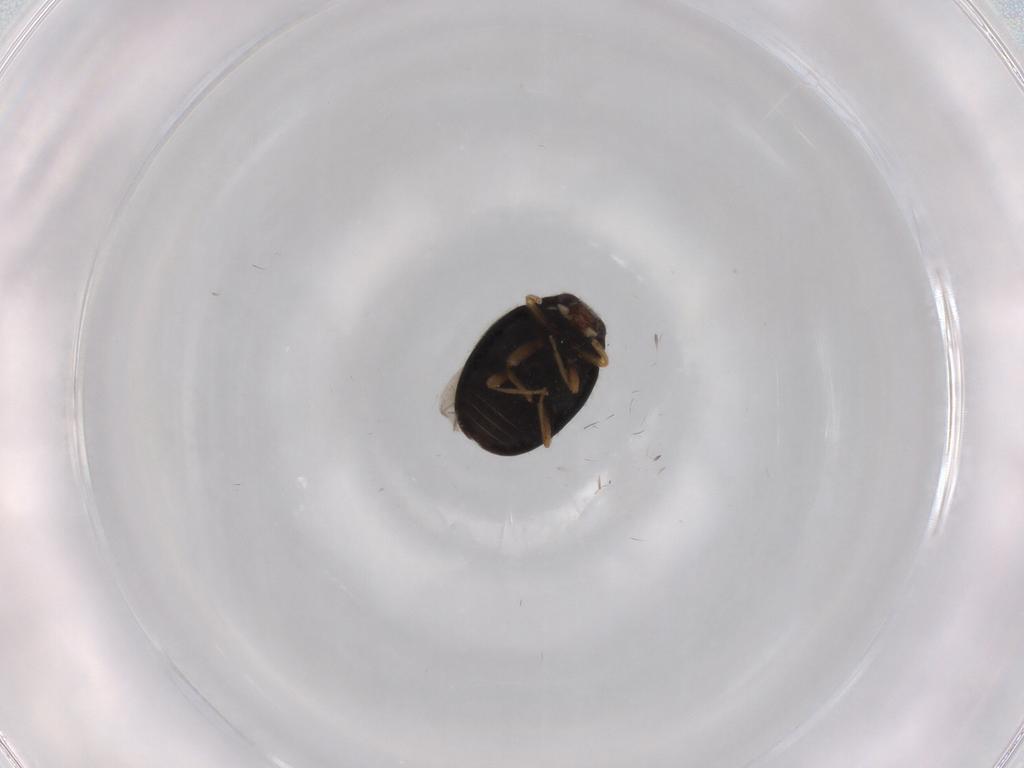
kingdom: Animalia
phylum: Arthropoda
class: Insecta
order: Coleoptera
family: Coccinellidae
